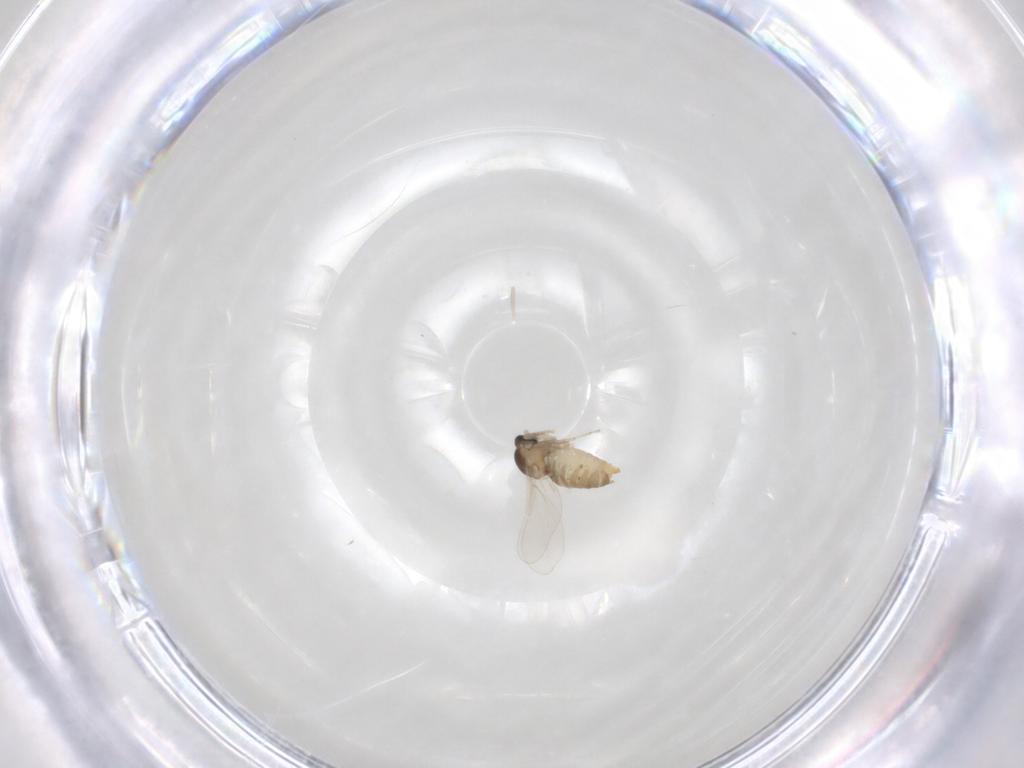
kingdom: Animalia
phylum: Arthropoda
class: Insecta
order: Diptera
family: Cecidomyiidae
